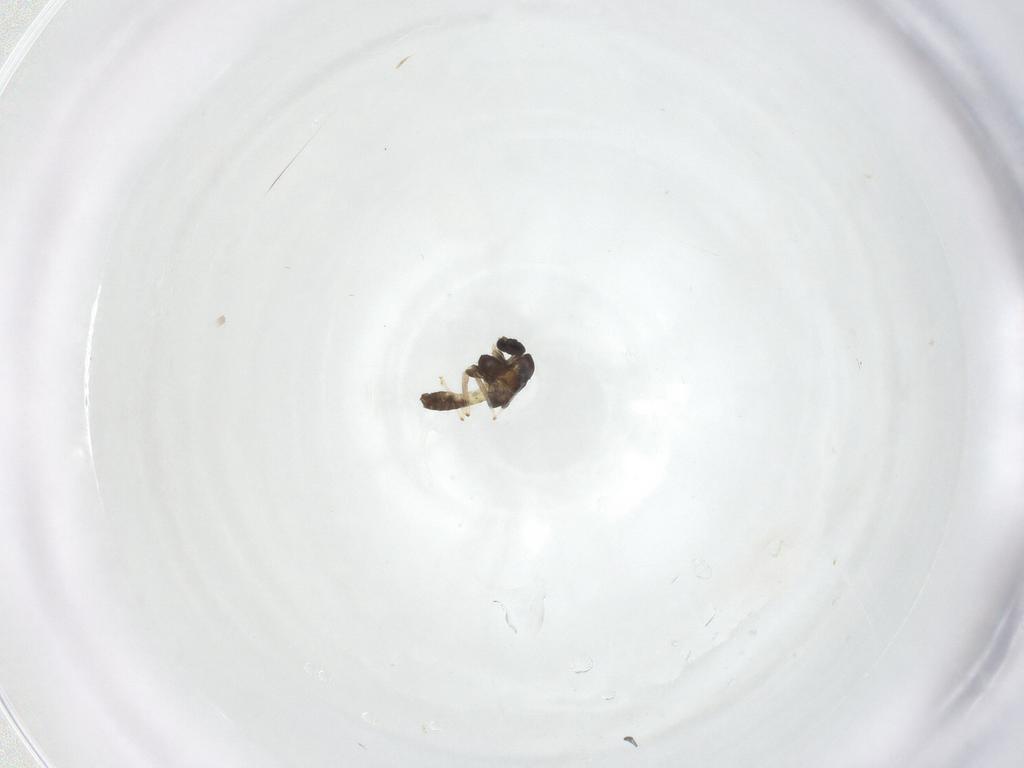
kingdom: Animalia
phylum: Arthropoda
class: Insecta
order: Diptera
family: Chironomidae
